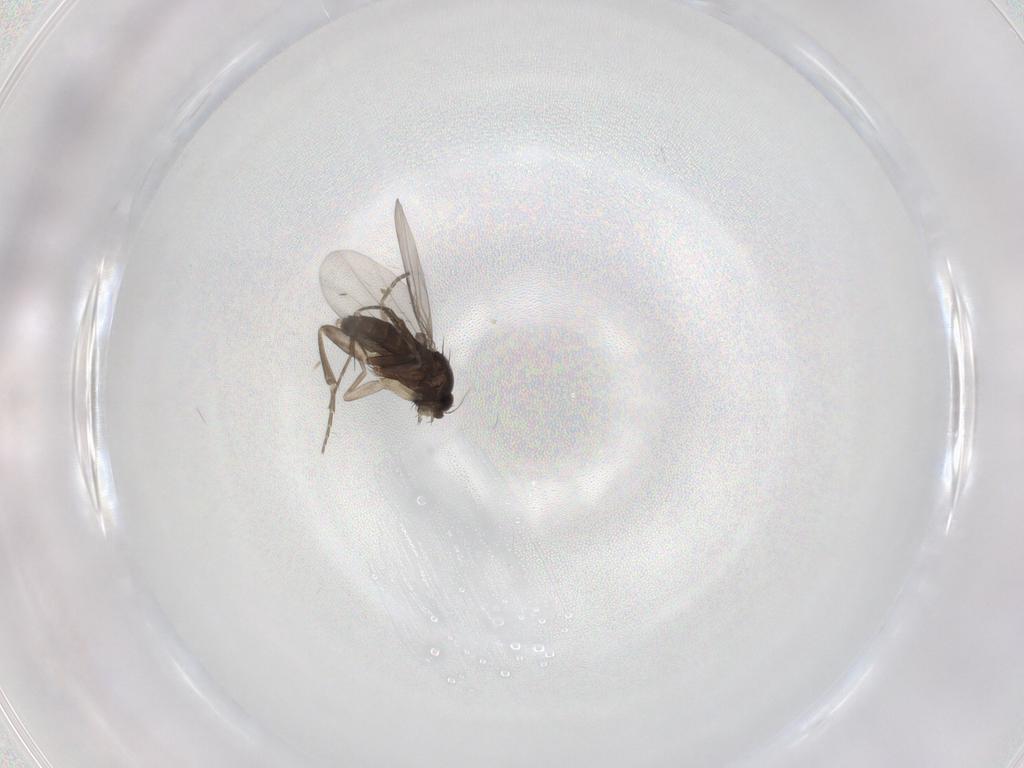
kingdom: Animalia
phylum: Arthropoda
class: Insecta
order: Diptera
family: Phoridae
